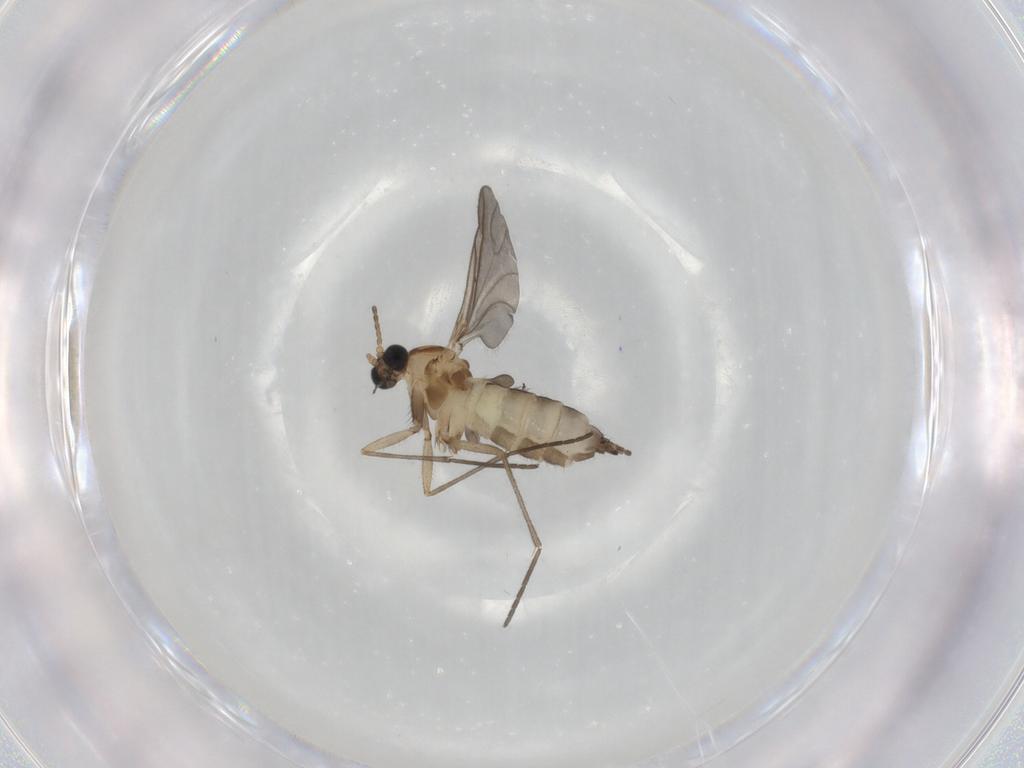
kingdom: Animalia
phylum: Arthropoda
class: Insecta
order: Diptera
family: Sciaridae
